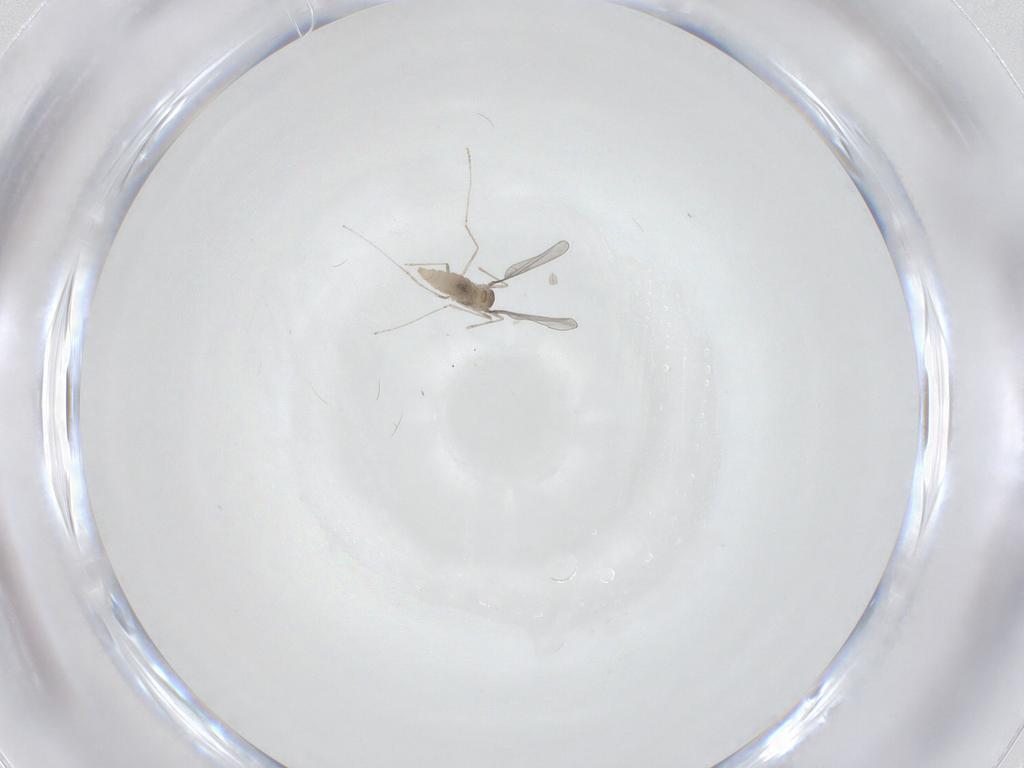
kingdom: Animalia
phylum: Arthropoda
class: Insecta
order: Diptera
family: Cecidomyiidae
